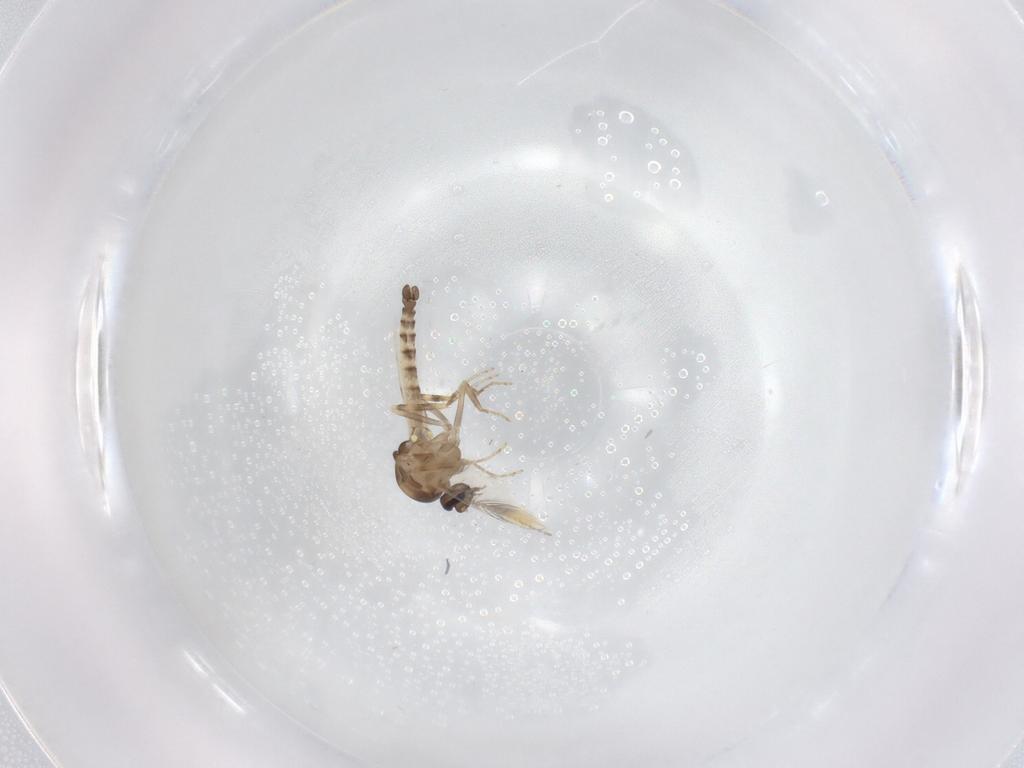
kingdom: Animalia
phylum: Arthropoda
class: Insecta
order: Diptera
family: Ceratopogonidae
